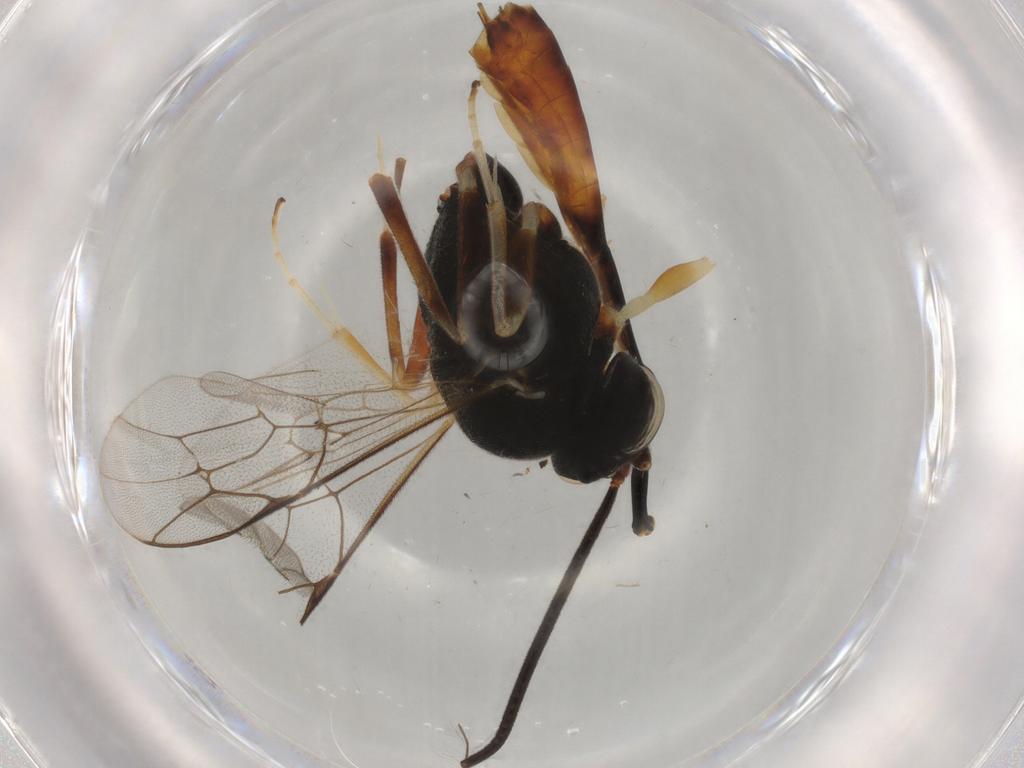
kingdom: Animalia
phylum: Arthropoda
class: Insecta
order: Hymenoptera
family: Ichneumonidae
